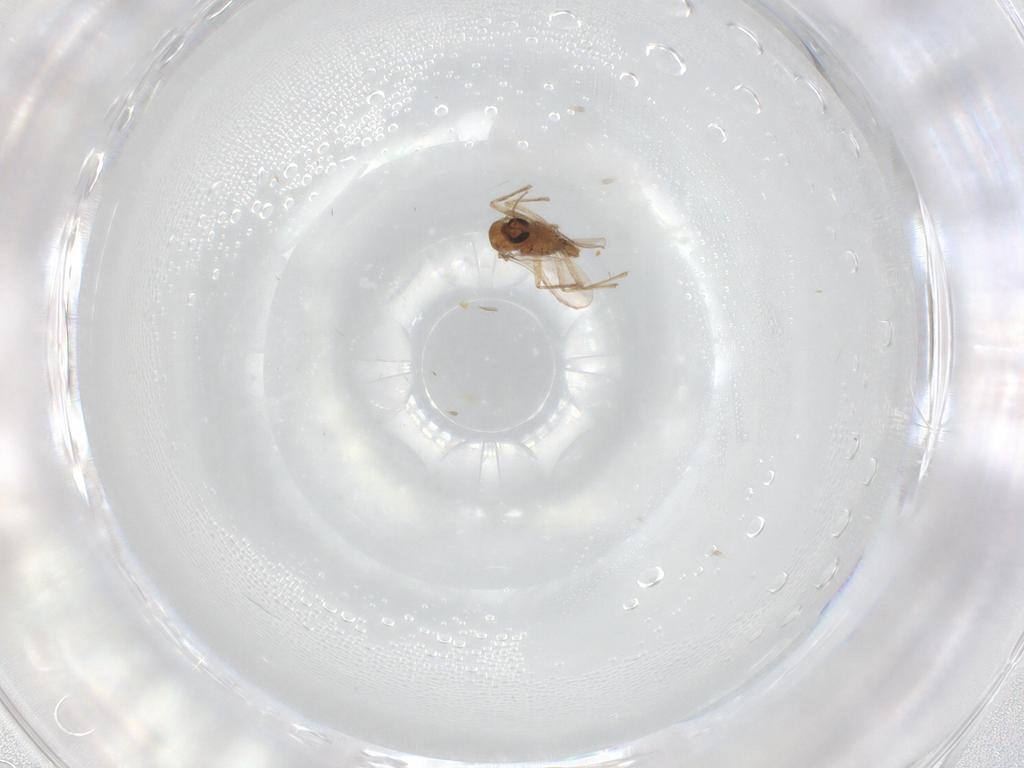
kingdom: Animalia
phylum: Arthropoda
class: Insecta
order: Diptera
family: Chironomidae
